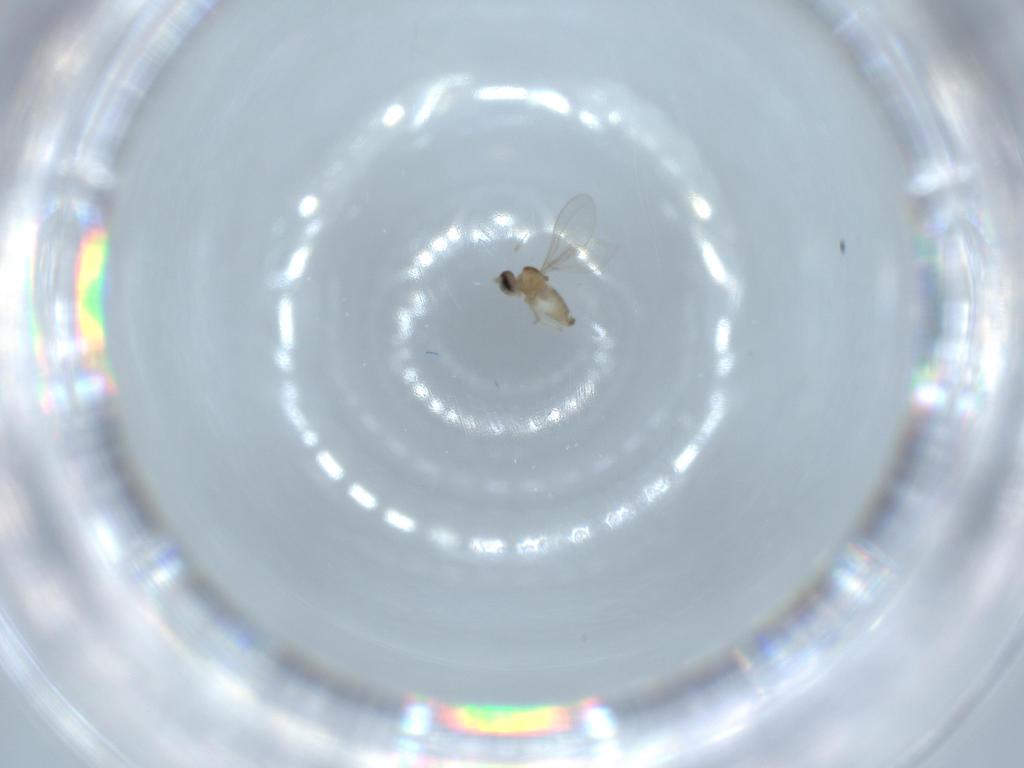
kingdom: Animalia
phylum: Arthropoda
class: Insecta
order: Diptera
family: Cecidomyiidae
